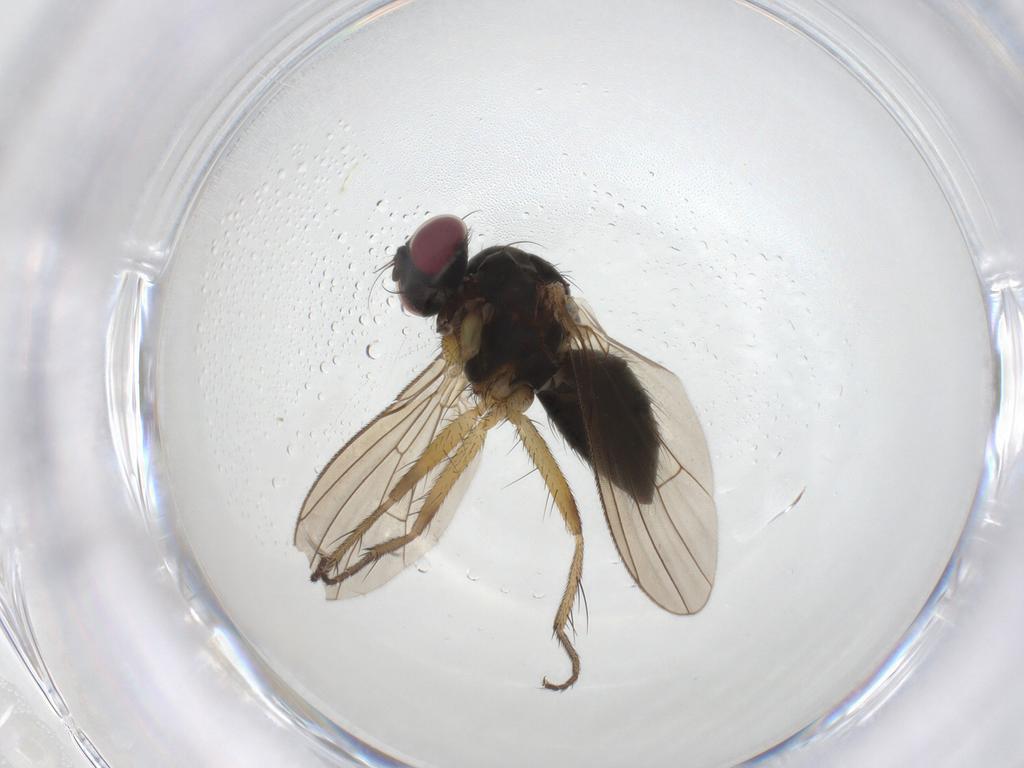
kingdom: Animalia
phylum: Arthropoda
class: Insecta
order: Diptera
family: Muscidae
